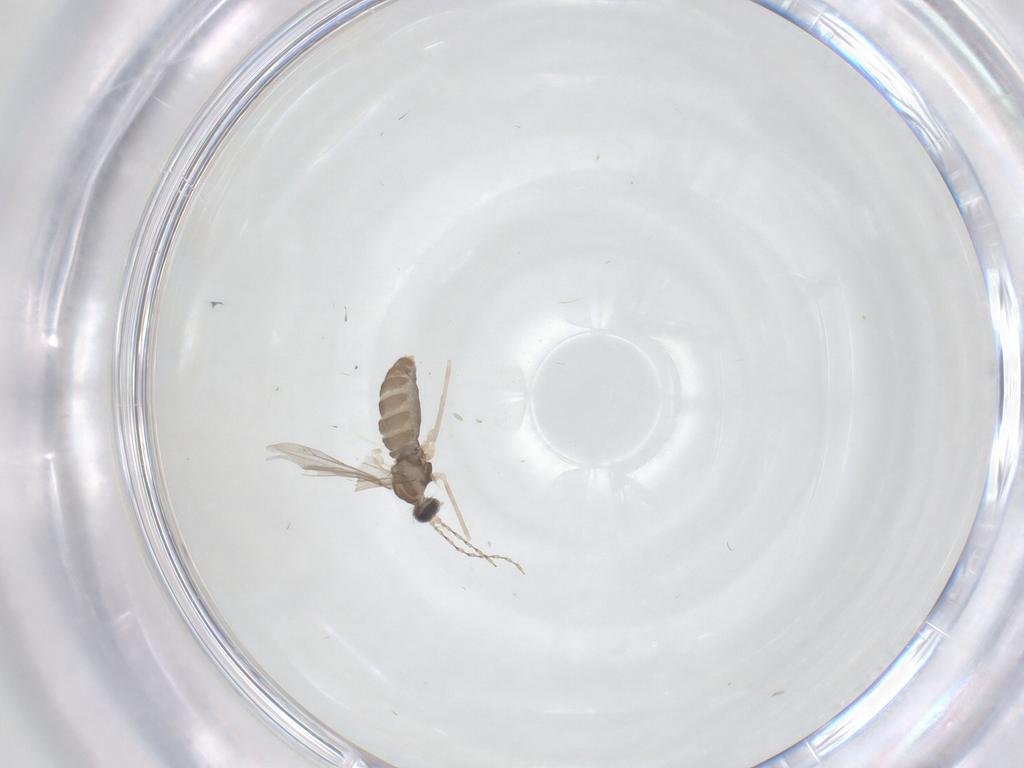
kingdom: Animalia
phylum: Arthropoda
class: Insecta
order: Diptera
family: Cecidomyiidae
